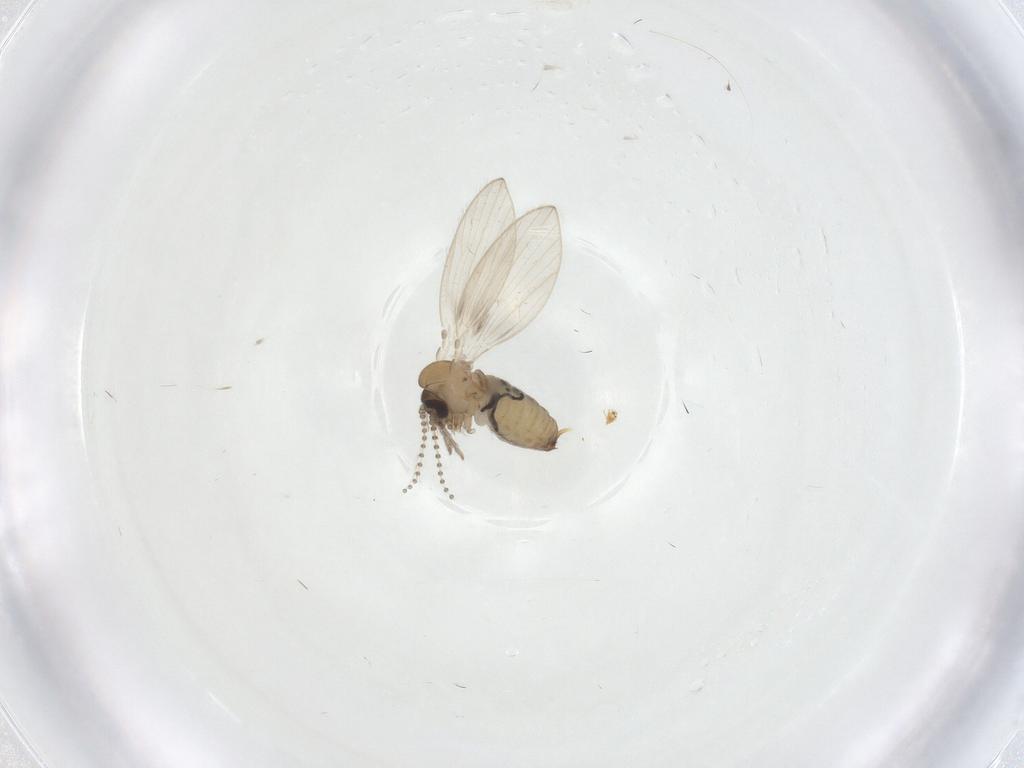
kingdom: Animalia
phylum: Arthropoda
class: Insecta
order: Diptera
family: Psychodidae
